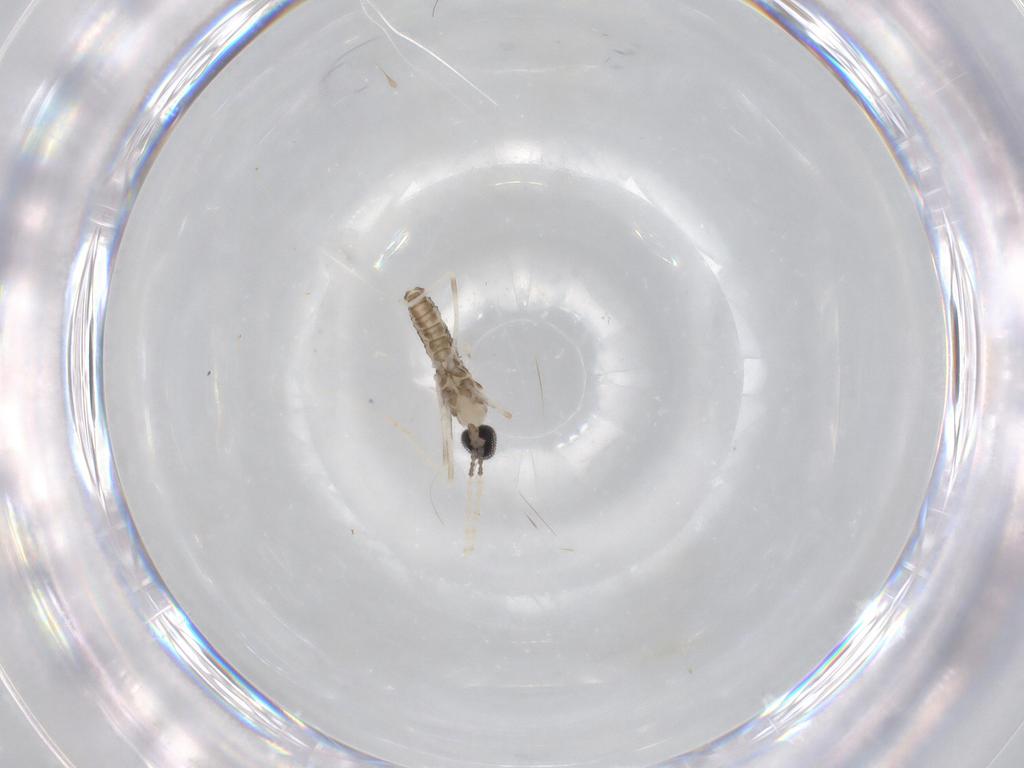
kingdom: Animalia
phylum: Arthropoda
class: Insecta
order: Diptera
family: Cecidomyiidae
